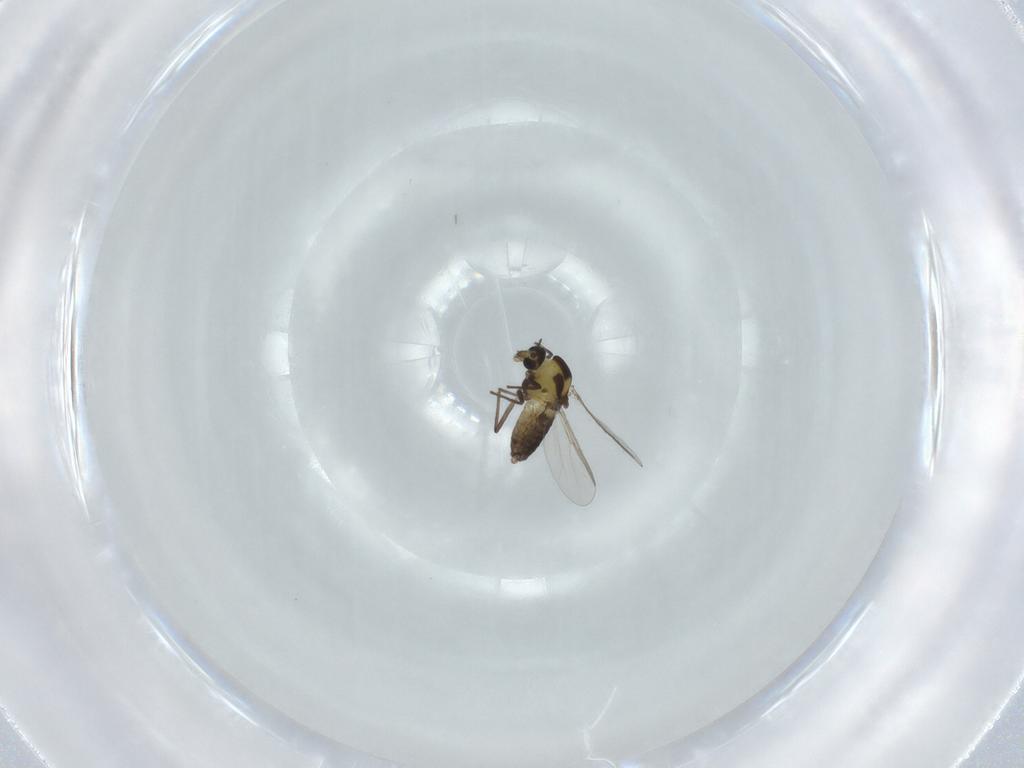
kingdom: Animalia
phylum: Arthropoda
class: Insecta
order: Diptera
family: Chironomidae
